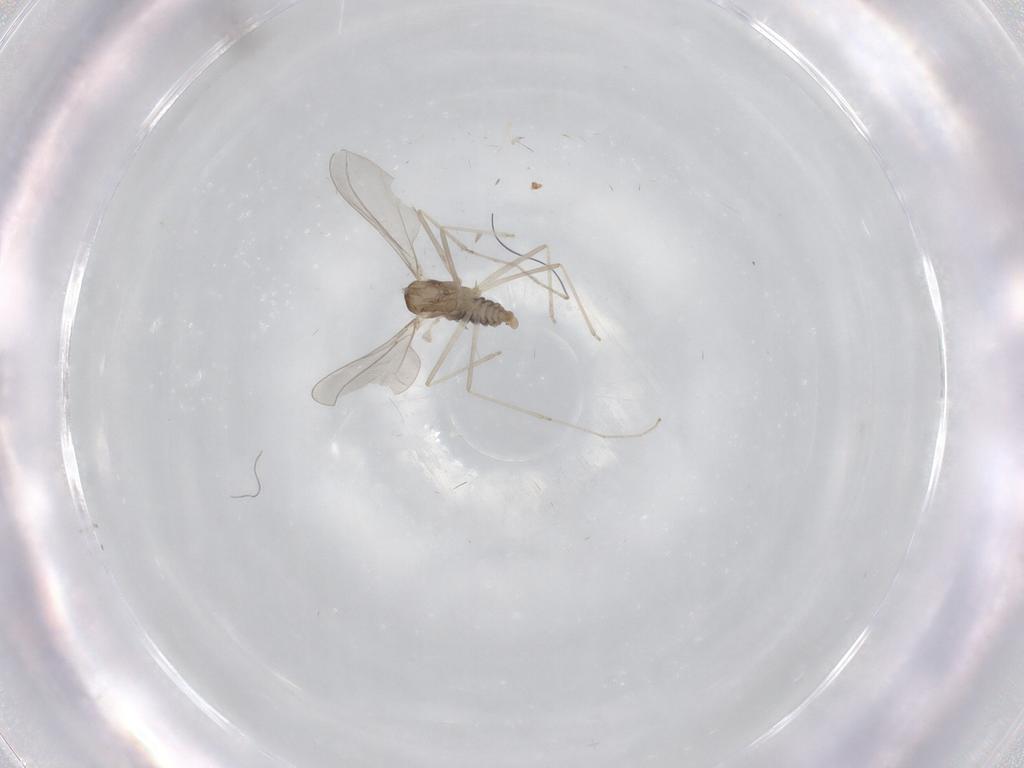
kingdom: Animalia
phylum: Arthropoda
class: Insecta
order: Diptera
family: Cecidomyiidae
